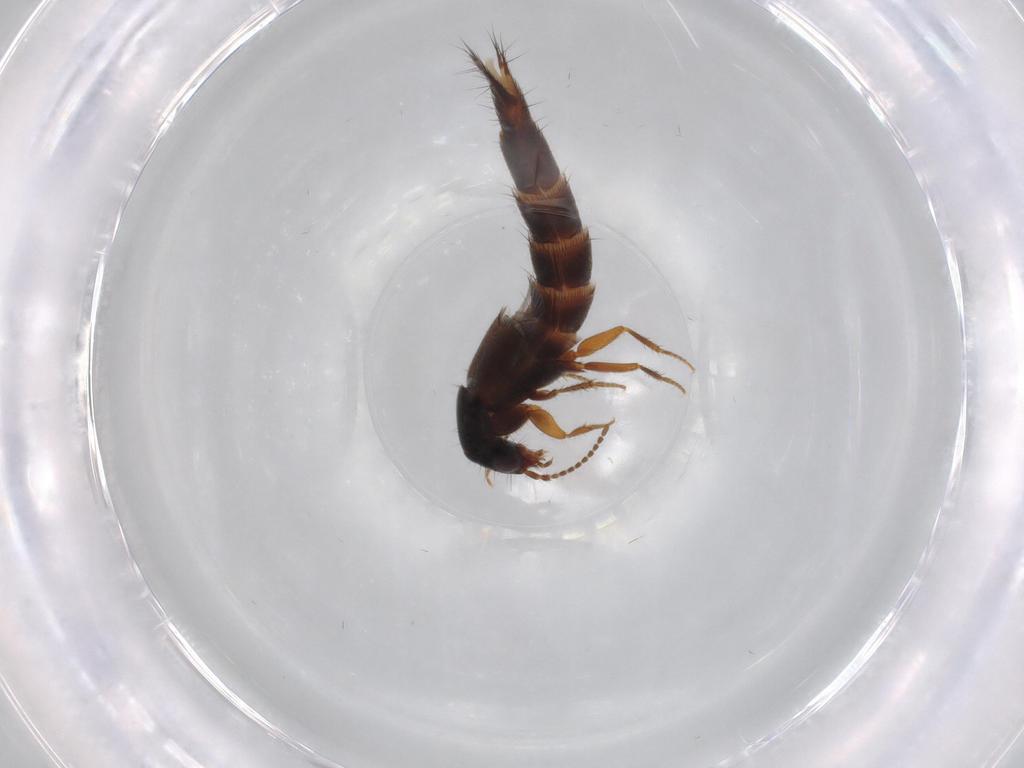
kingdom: Animalia
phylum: Arthropoda
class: Insecta
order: Coleoptera
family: Staphylinidae
